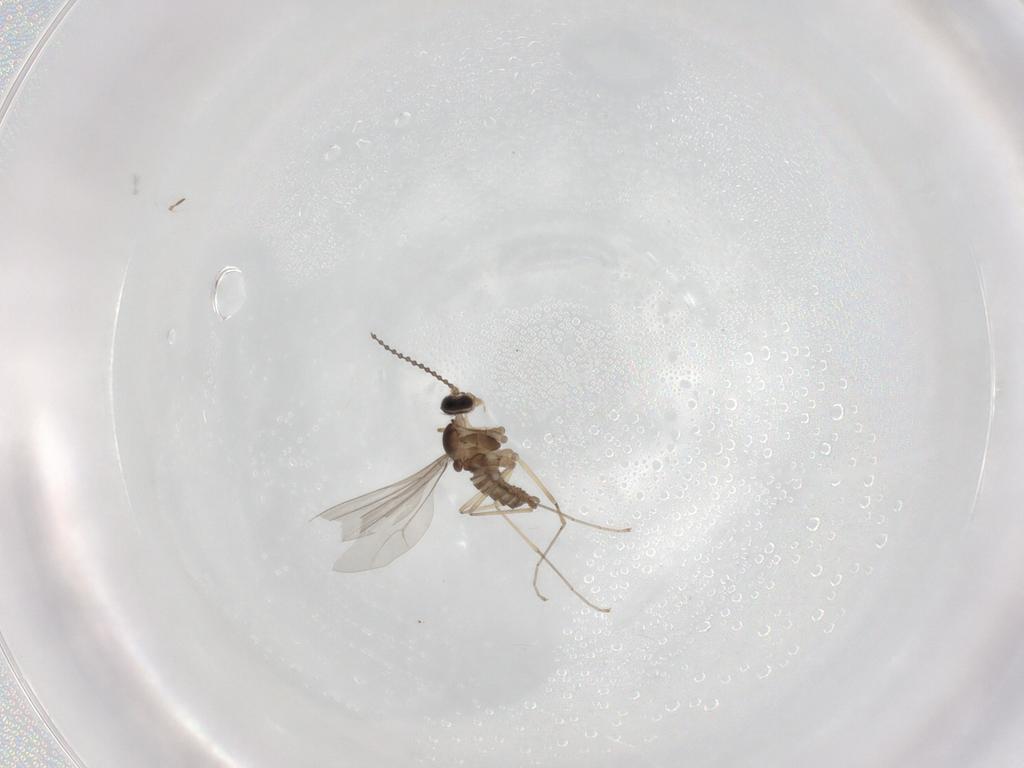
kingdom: Animalia
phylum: Arthropoda
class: Insecta
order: Diptera
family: Cecidomyiidae
